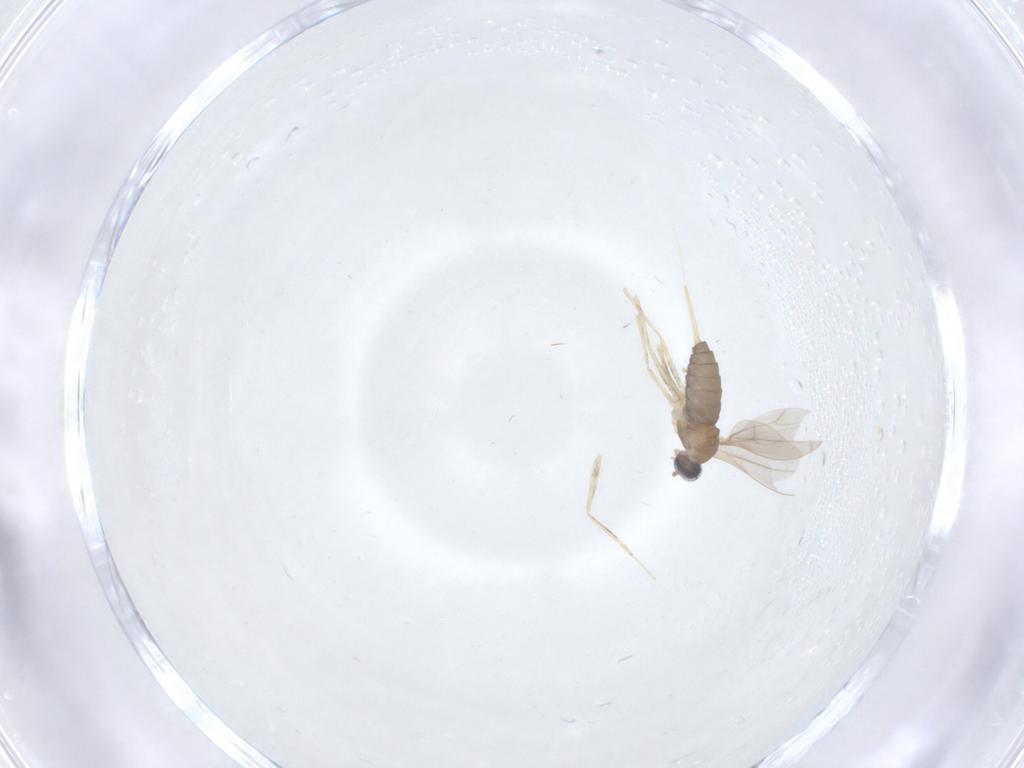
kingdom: Animalia
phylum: Arthropoda
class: Insecta
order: Diptera
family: Cecidomyiidae
